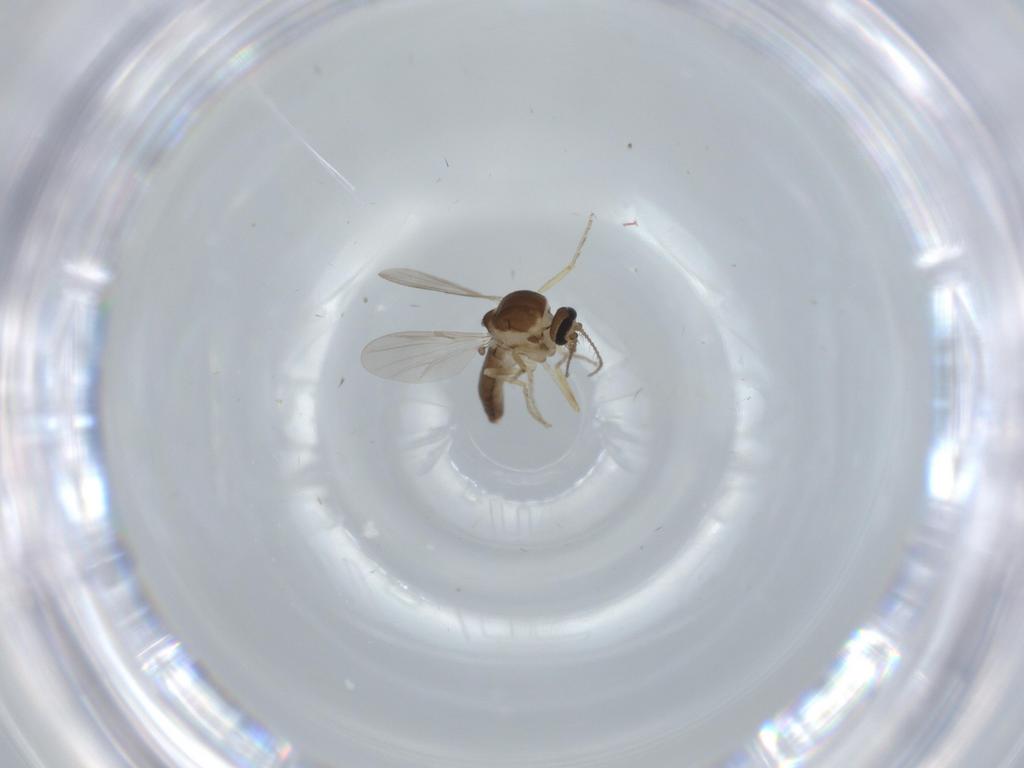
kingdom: Animalia
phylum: Arthropoda
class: Insecta
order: Diptera
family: Ceratopogonidae
